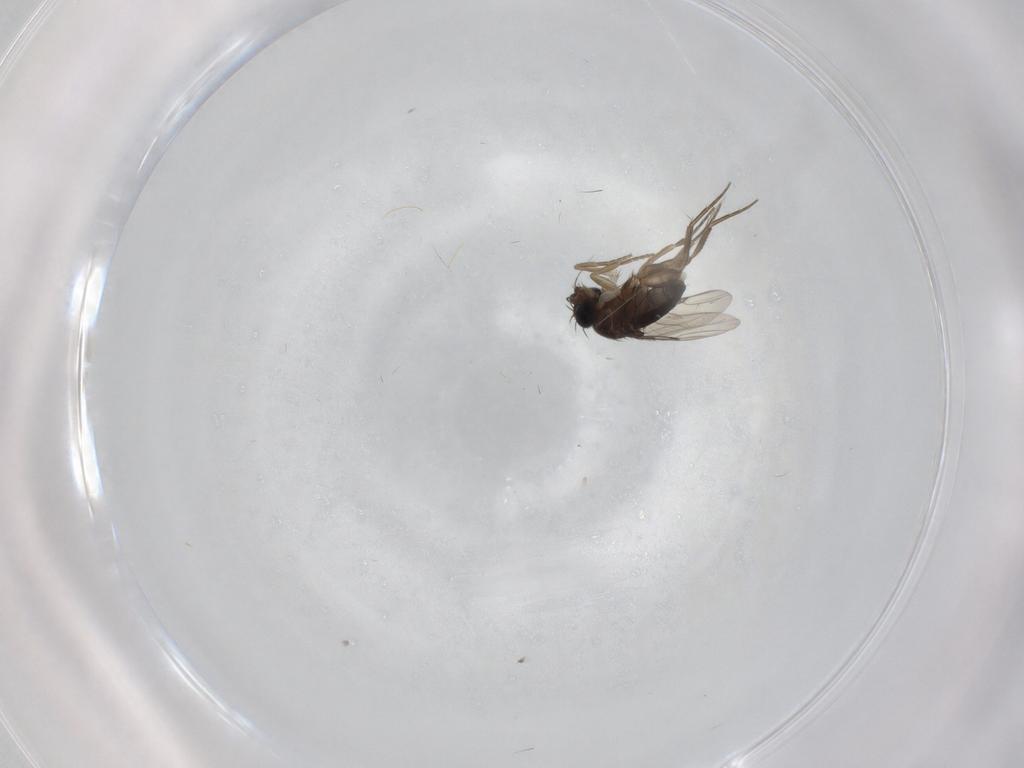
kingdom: Animalia
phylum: Arthropoda
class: Insecta
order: Diptera
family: Phoridae
